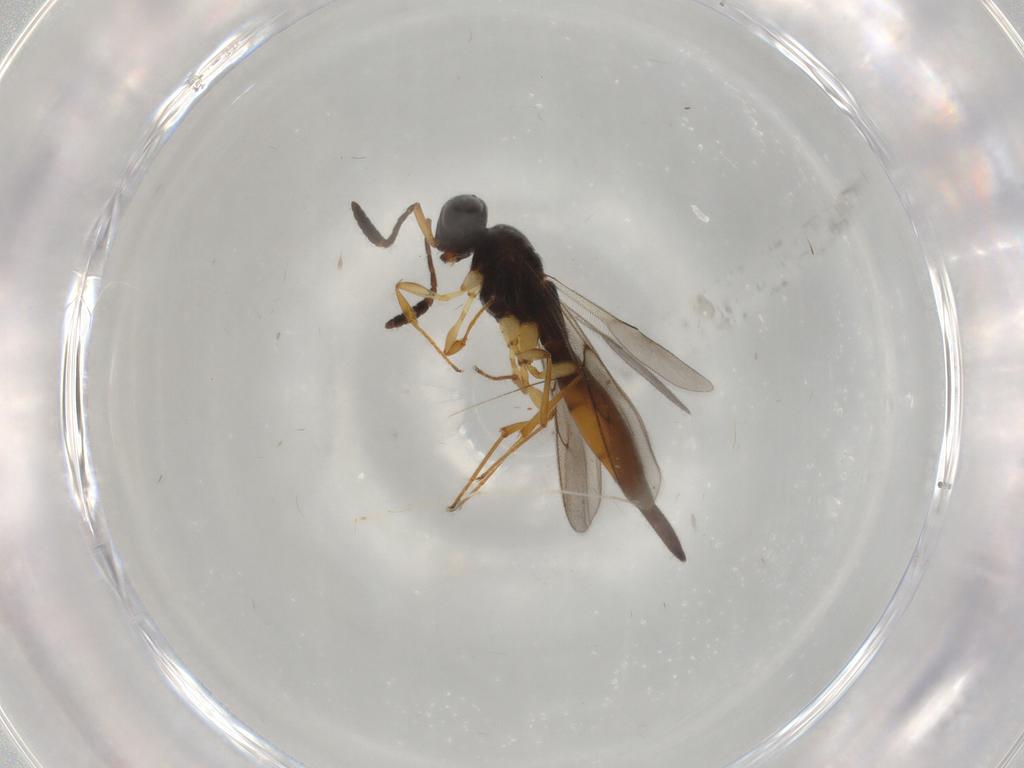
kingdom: Animalia
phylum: Arthropoda
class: Insecta
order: Hymenoptera
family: Scelionidae
